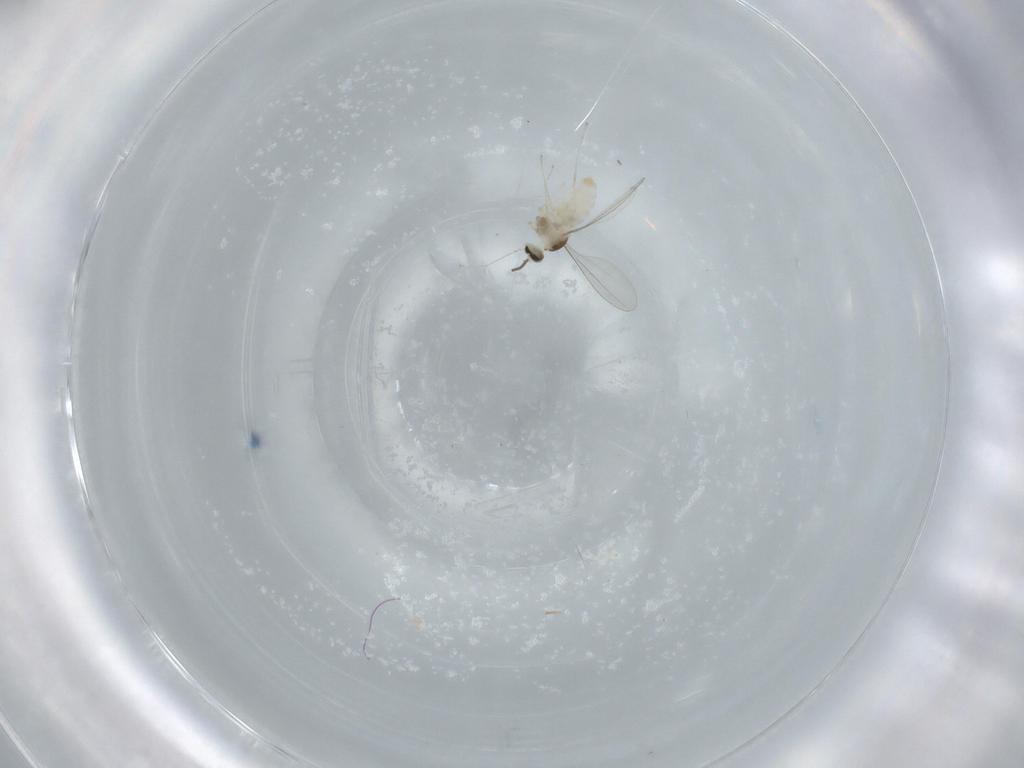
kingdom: Animalia
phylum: Arthropoda
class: Insecta
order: Diptera
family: Cecidomyiidae
